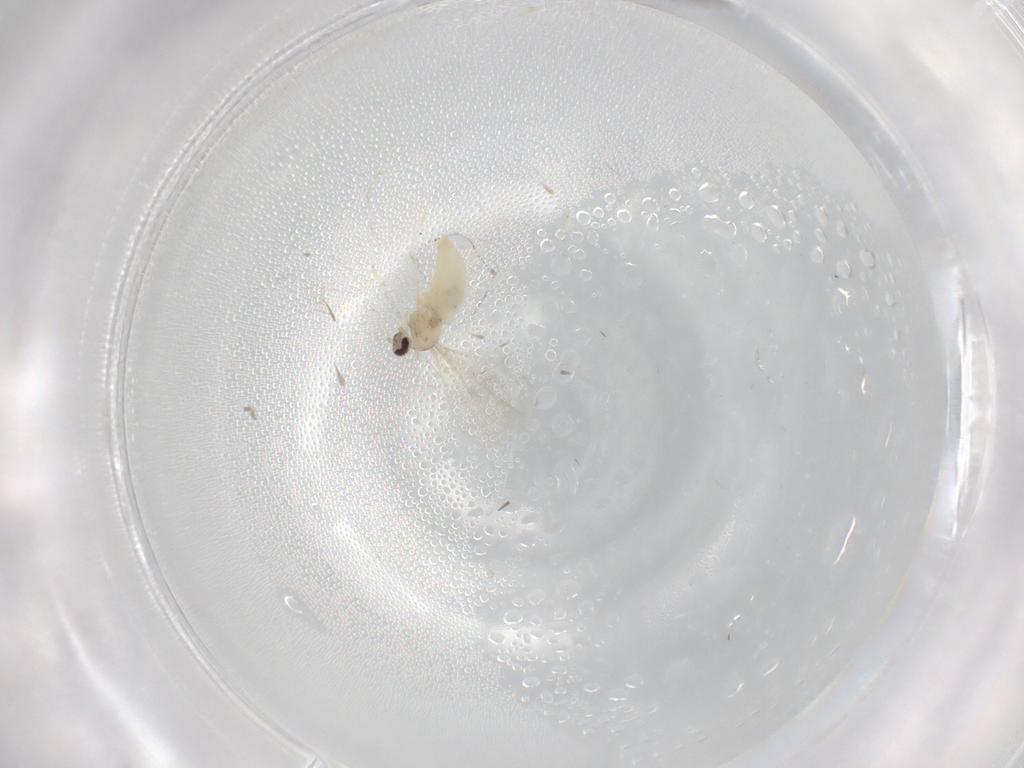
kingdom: Animalia
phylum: Arthropoda
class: Insecta
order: Diptera
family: Cecidomyiidae
